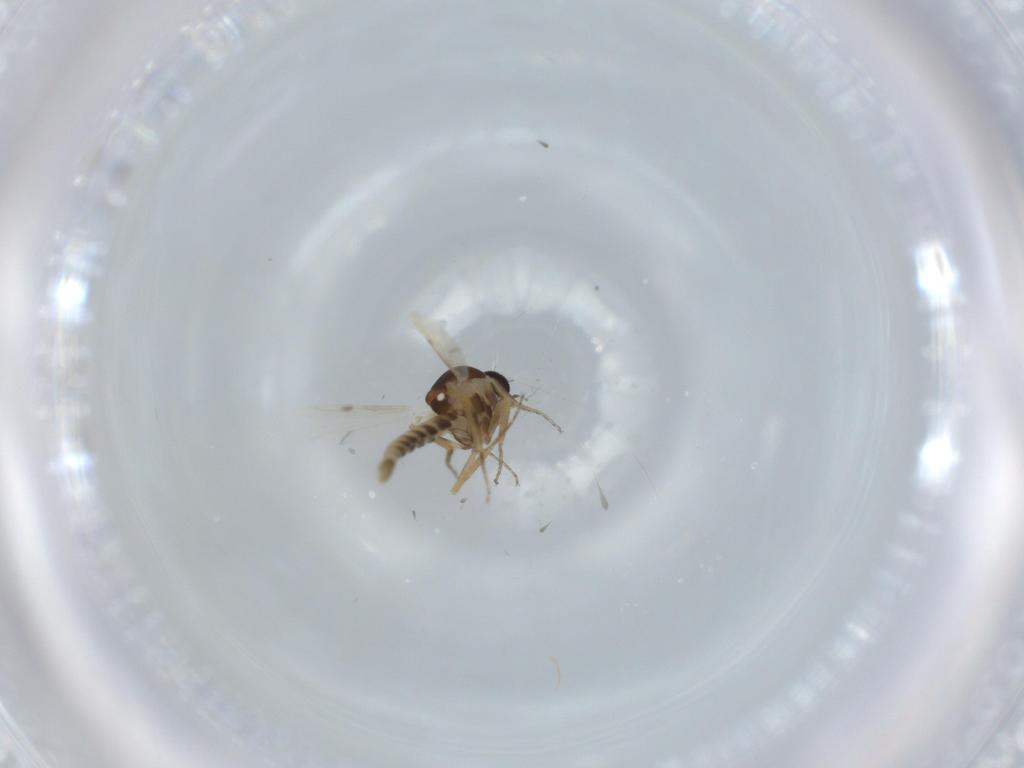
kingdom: Animalia
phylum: Arthropoda
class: Insecta
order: Diptera
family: Ceratopogonidae
